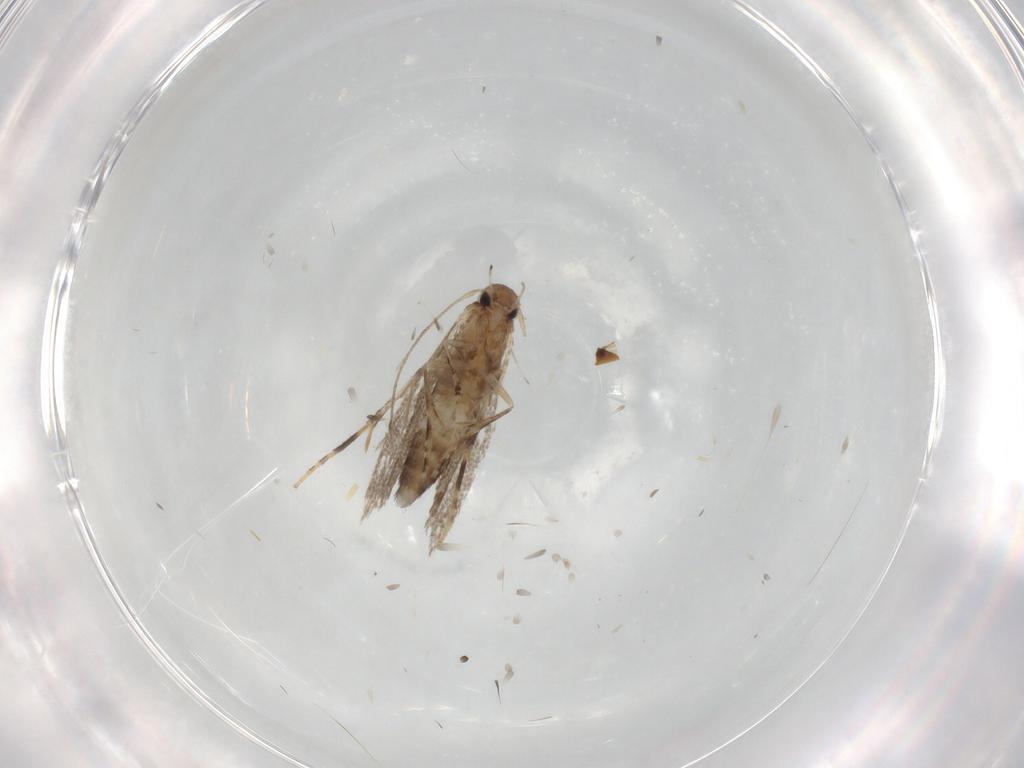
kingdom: Animalia
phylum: Arthropoda
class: Insecta
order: Lepidoptera
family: Elachistidae
